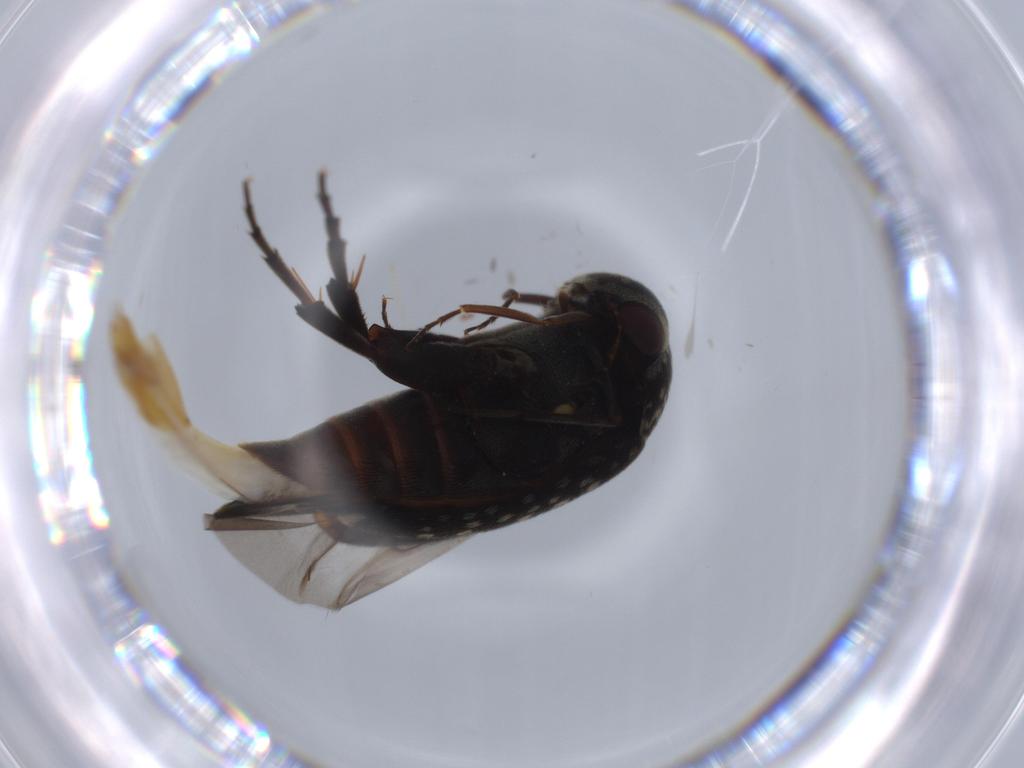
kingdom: Animalia
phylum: Arthropoda
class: Insecta
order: Coleoptera
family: Mordellidae
